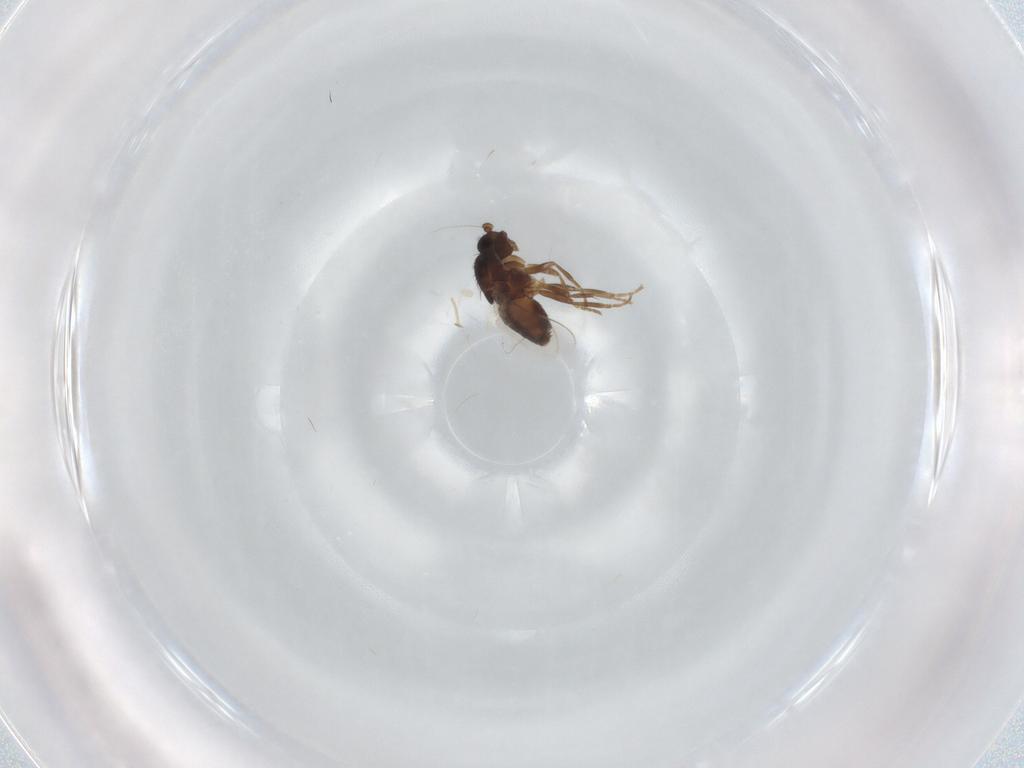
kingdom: Animalia
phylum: Arthropoda
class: Insecta
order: Diptera
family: Sphaeroceridae
